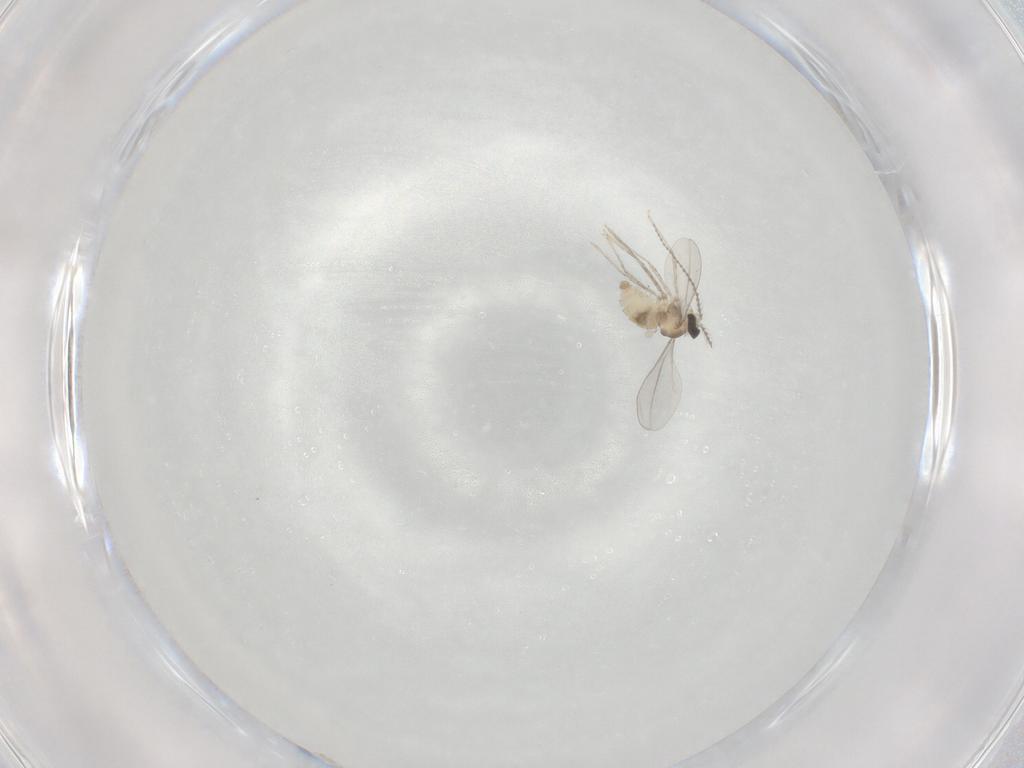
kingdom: Animalia
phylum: Arthropoda
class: Insecta
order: Diptera
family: Cecidomyiidae
